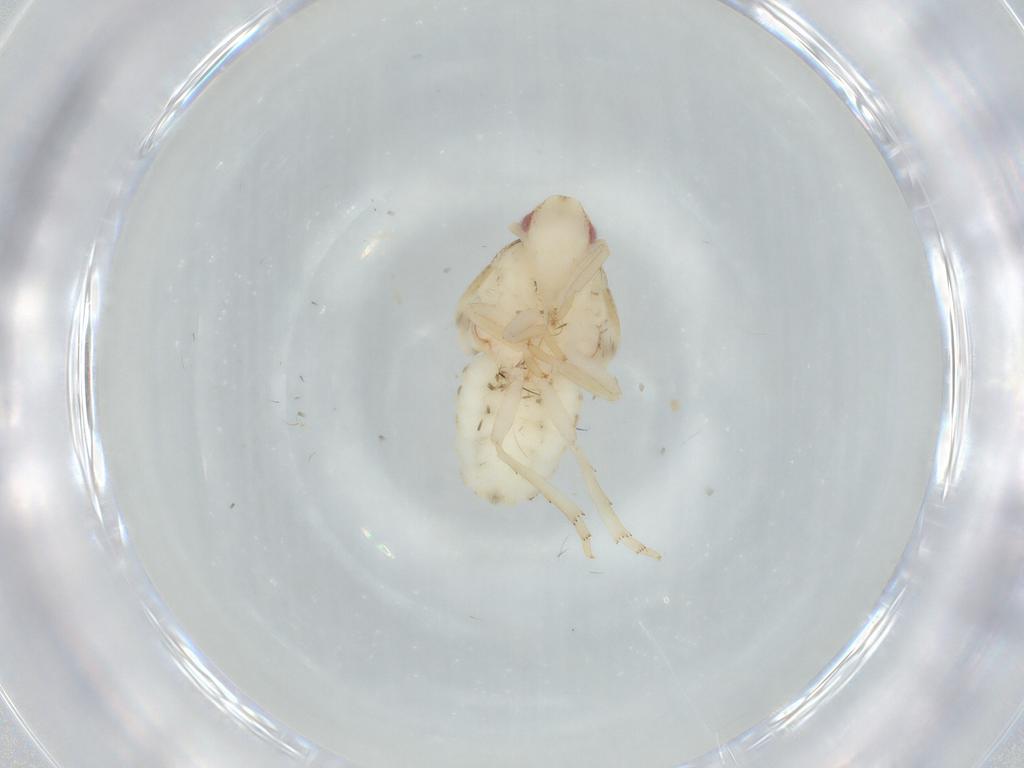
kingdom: Animalia
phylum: Arthropoda
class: Insecta
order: Hemiptera
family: Flatidae
